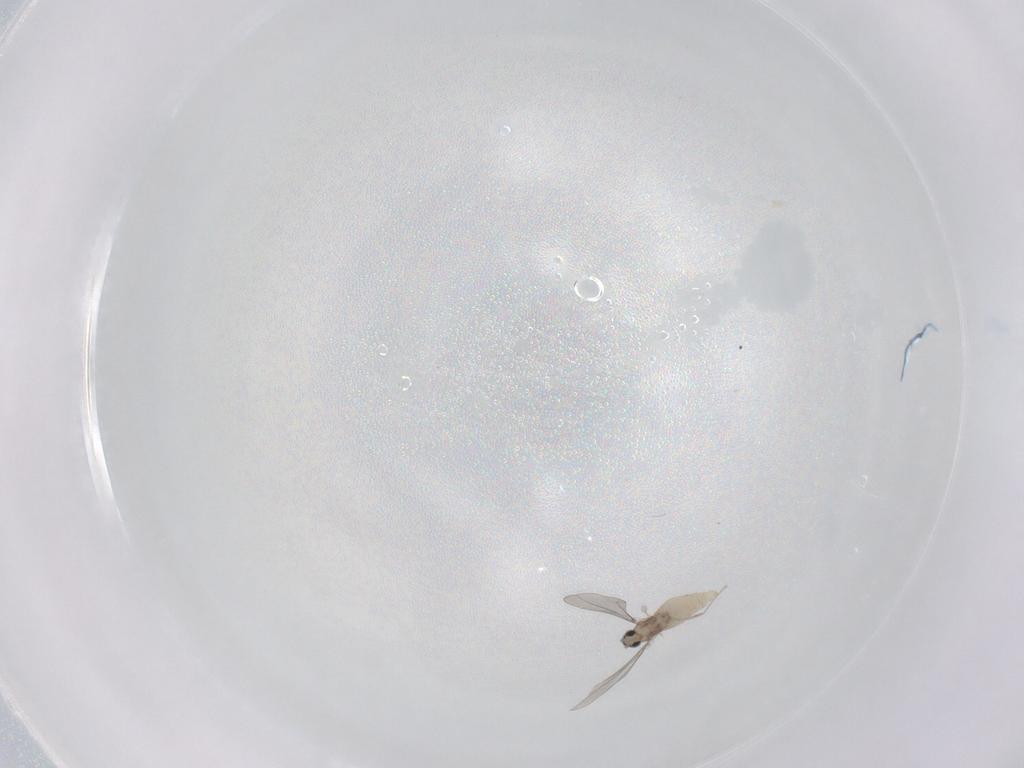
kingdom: Animalia
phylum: Arthropoda
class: Insecta
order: Diptera
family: Cecidomyiidae
